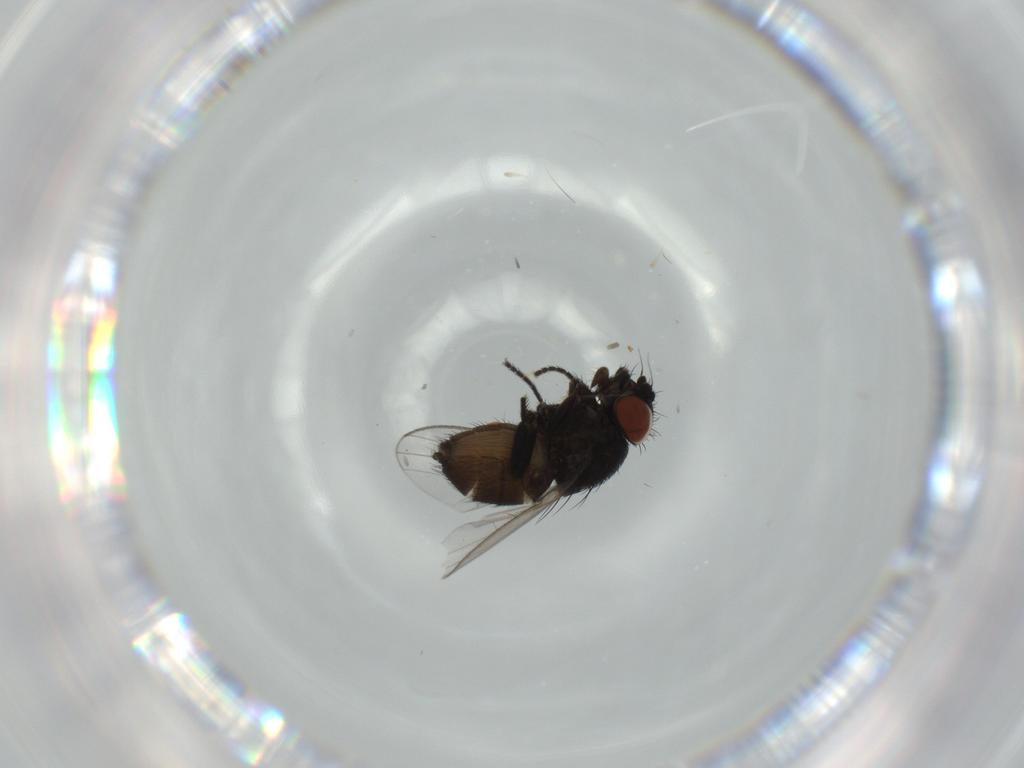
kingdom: Animalia
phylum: Arthropoda
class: Insecta
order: Diptera
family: Milichiidae
